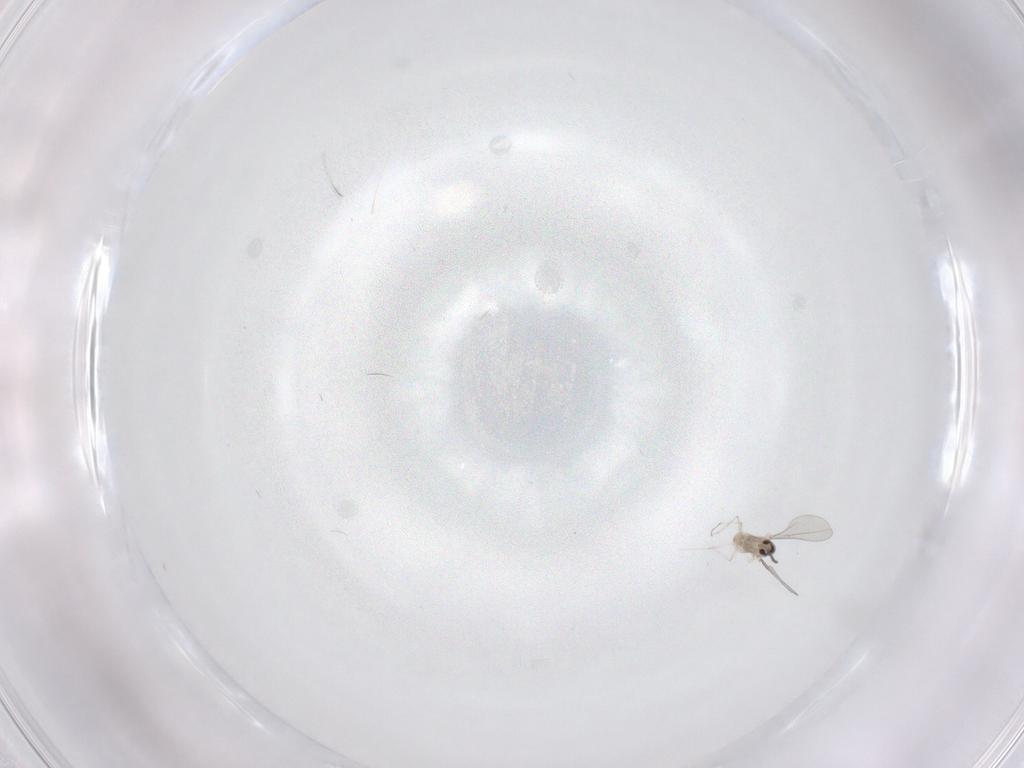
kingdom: Animalia
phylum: Arthropoda
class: Insecta
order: Diptera
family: Cecidomyiidae
